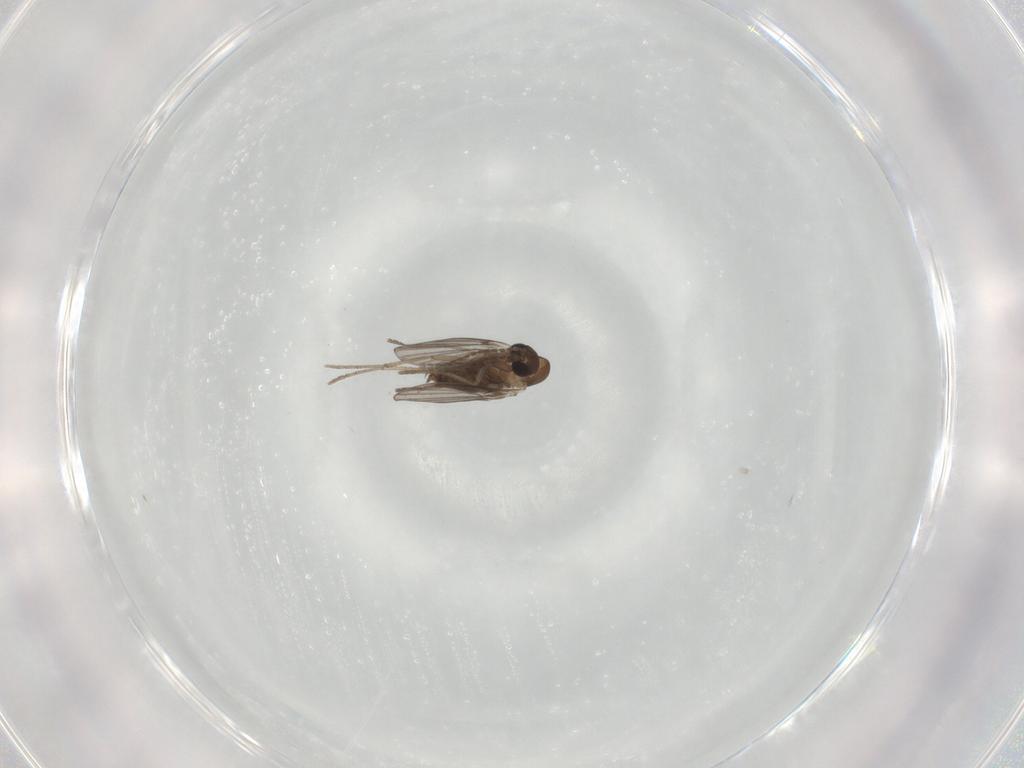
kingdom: Animalia
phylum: Arthropoda
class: Insecta
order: Diptera
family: Psychodidae
